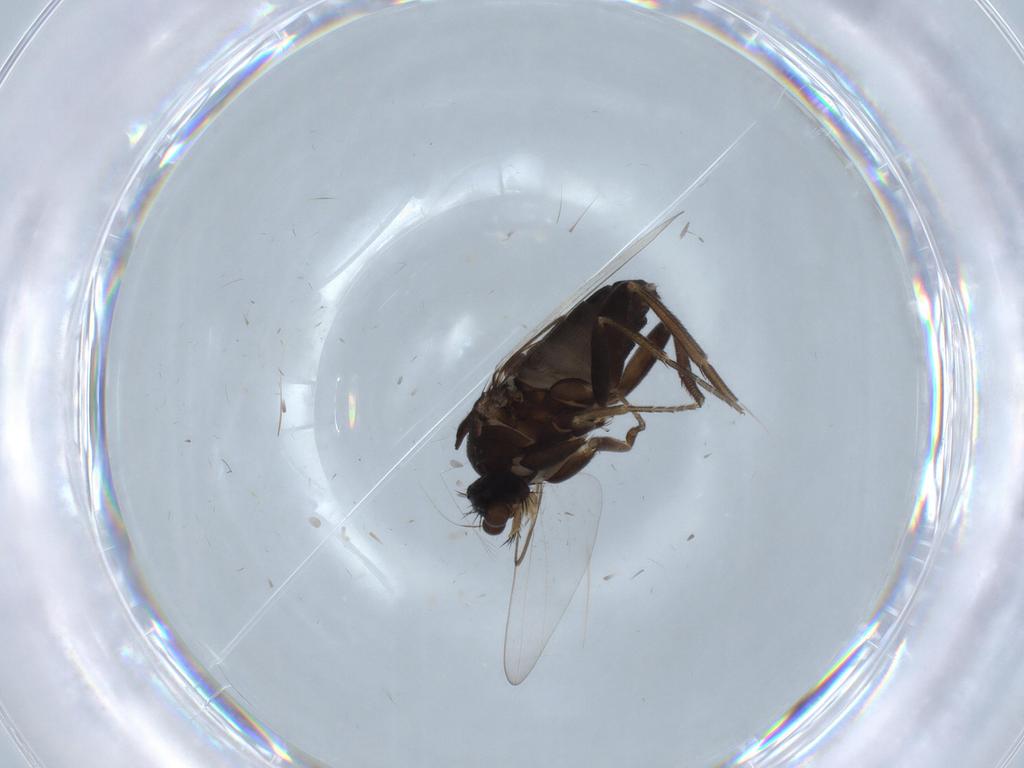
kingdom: Animalia
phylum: Arthropoda
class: Insecta
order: Diptera
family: Phoridae
